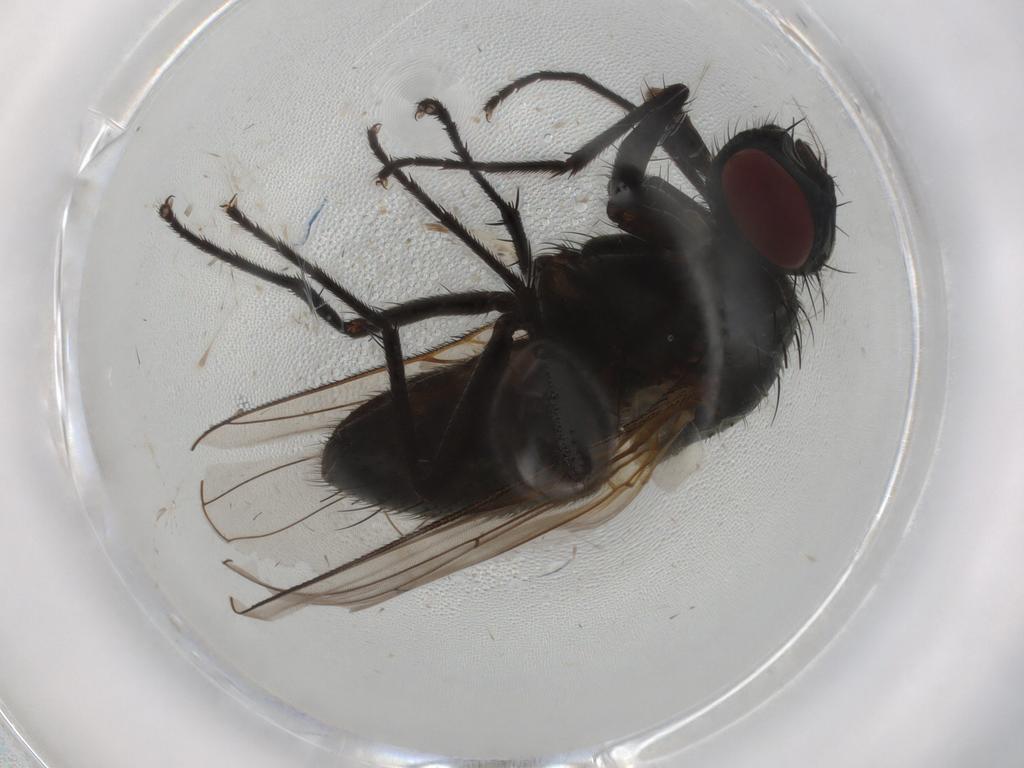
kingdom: Animalia
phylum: Arthropoda
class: Insecta
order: Diptera
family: Muscidae
